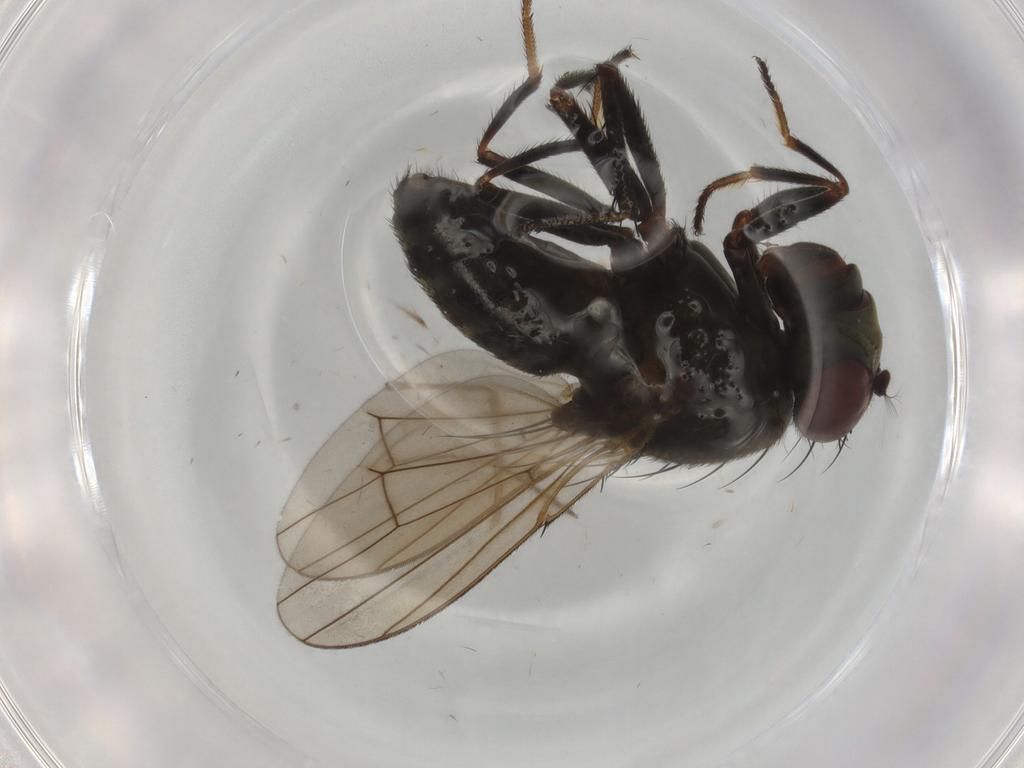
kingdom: Animalia
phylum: Arthropoda
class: Insecta
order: Diptera
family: Ephydridae
